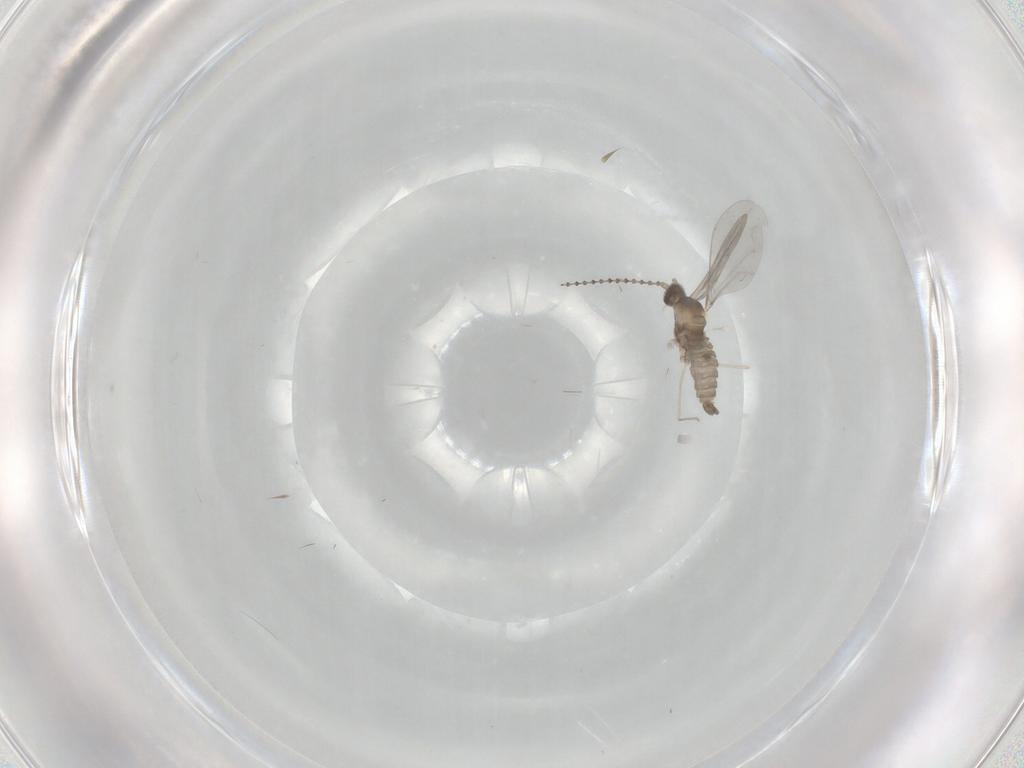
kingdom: Animalia
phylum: Arthropoda
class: Insecta
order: Diptera
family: Cecidomyiidae
